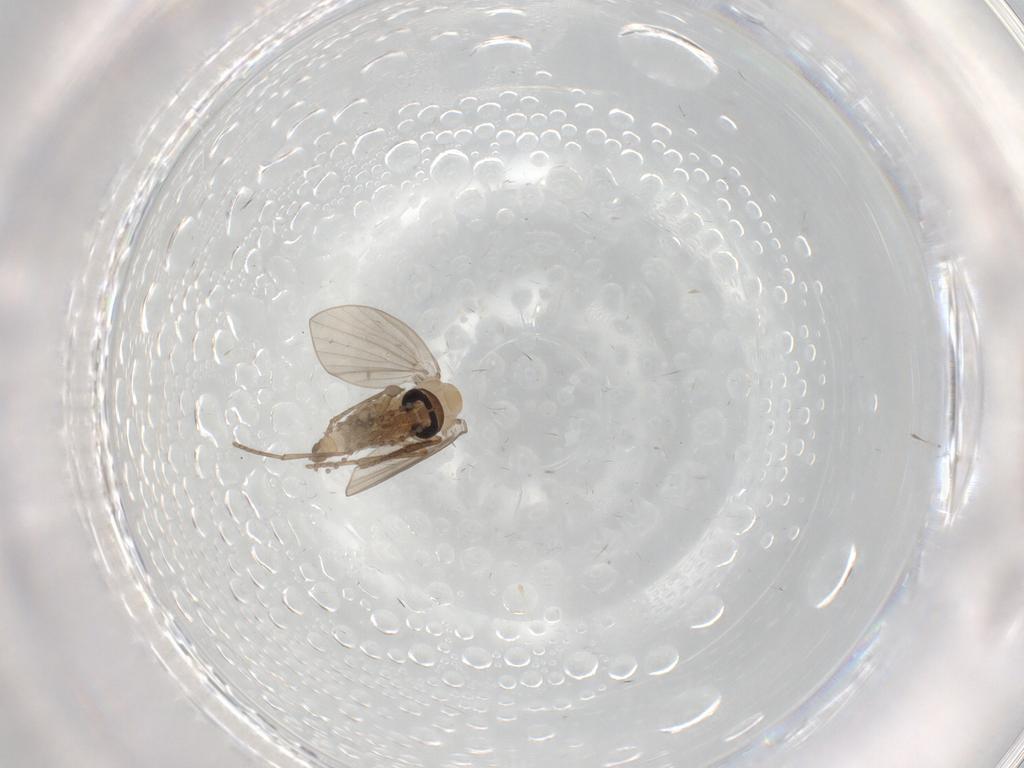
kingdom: Animalia
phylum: Arthropoda
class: Insecta
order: Diptera
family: Psychodidae
